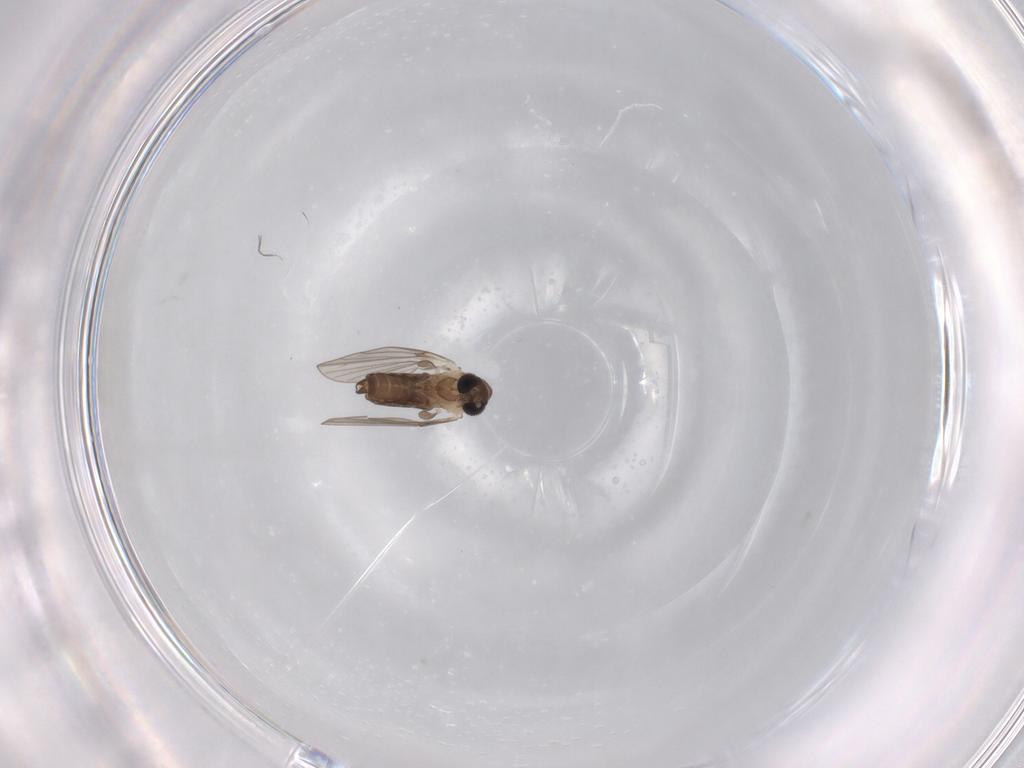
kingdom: Animalia
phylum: Arthropoda
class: Insecta
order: Diptera
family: Psychodidae
